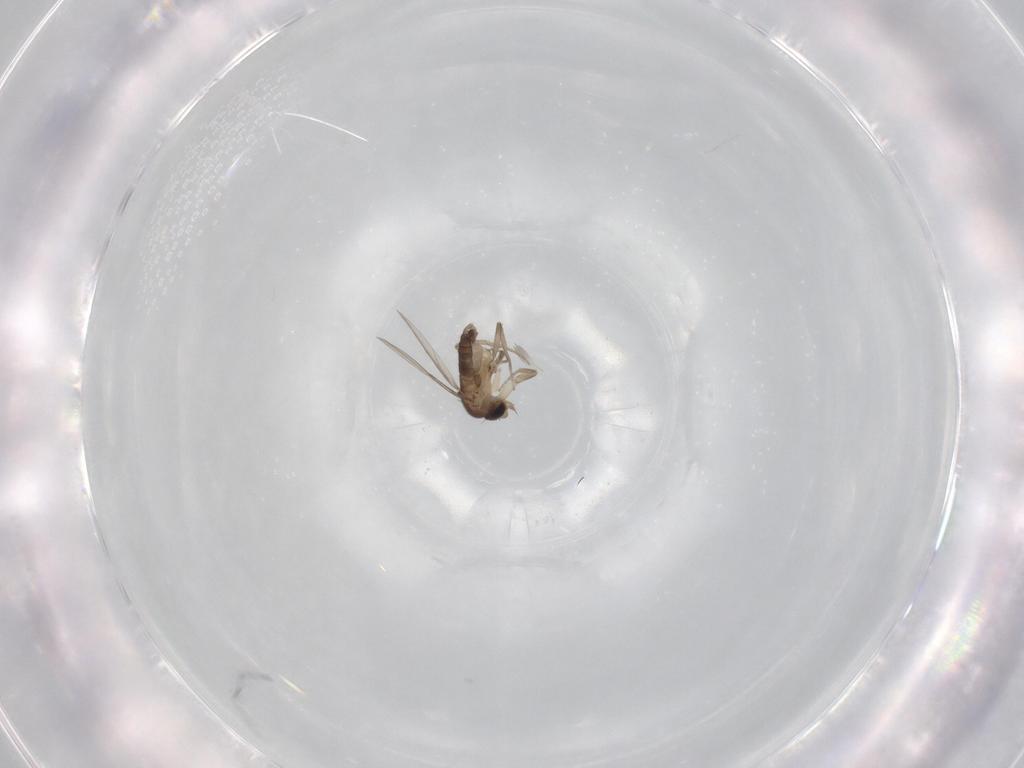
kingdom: Animalia
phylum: Arthropoda
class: Insecta
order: Diptera
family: Phoridae
